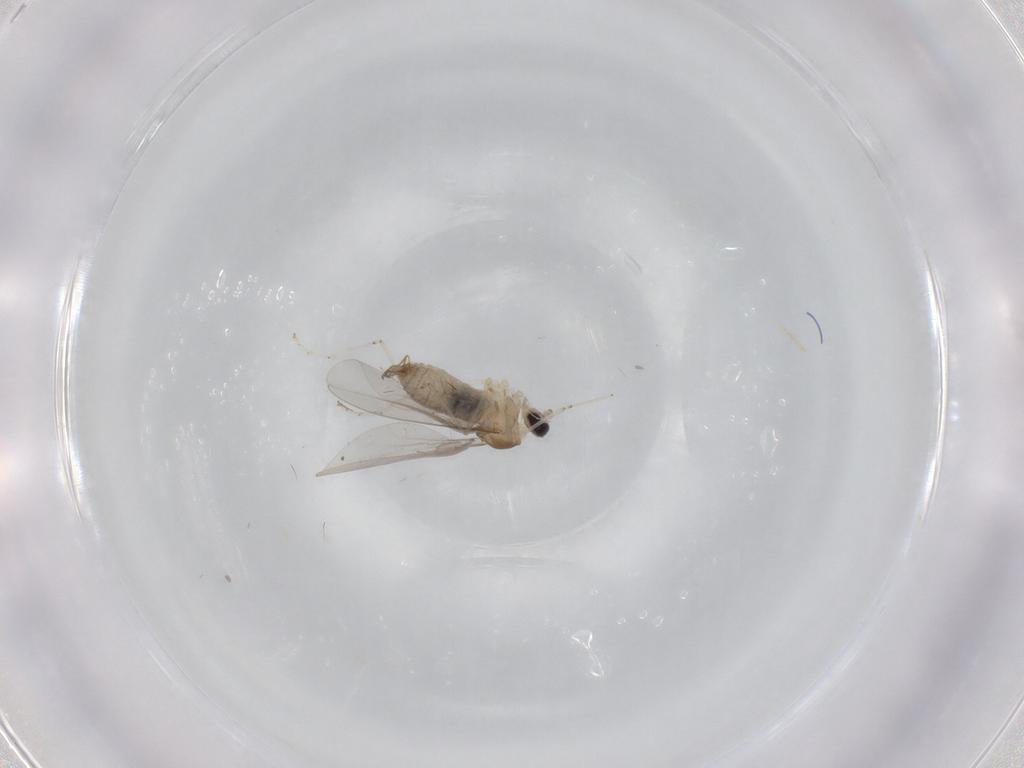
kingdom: Animalia
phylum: Arthropoda
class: Insecta
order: Diptera
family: Cecidomyiidae
